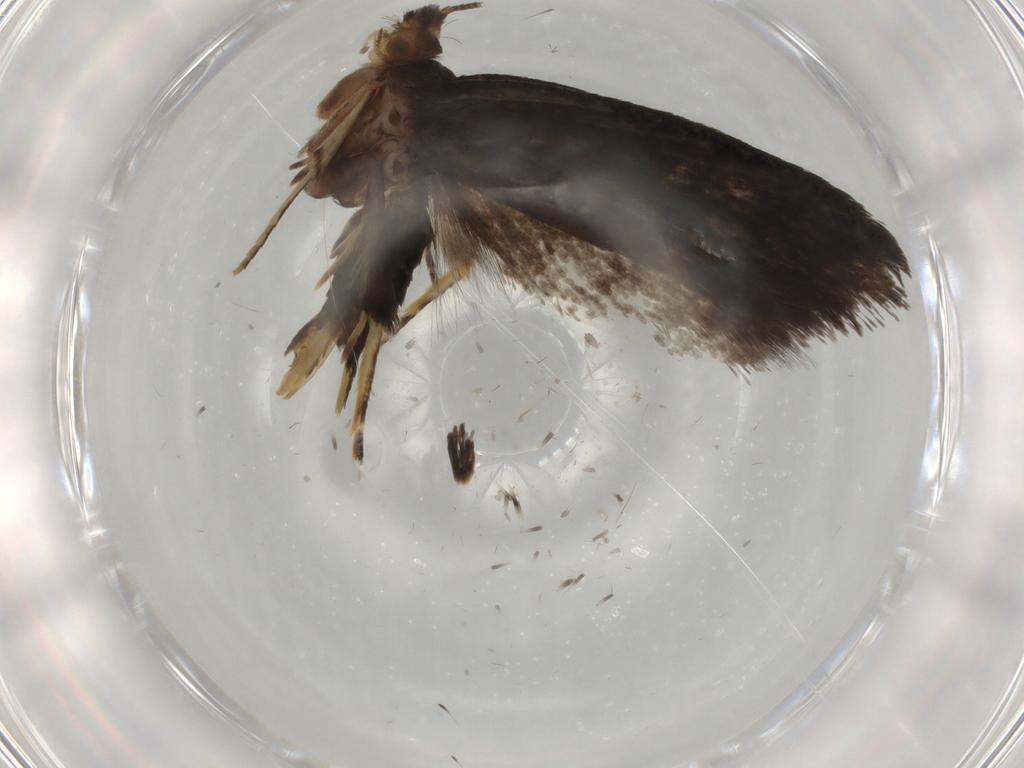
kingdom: Animalia
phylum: Arthropoda
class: Insecta
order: Lepidoptera
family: Tineidae
